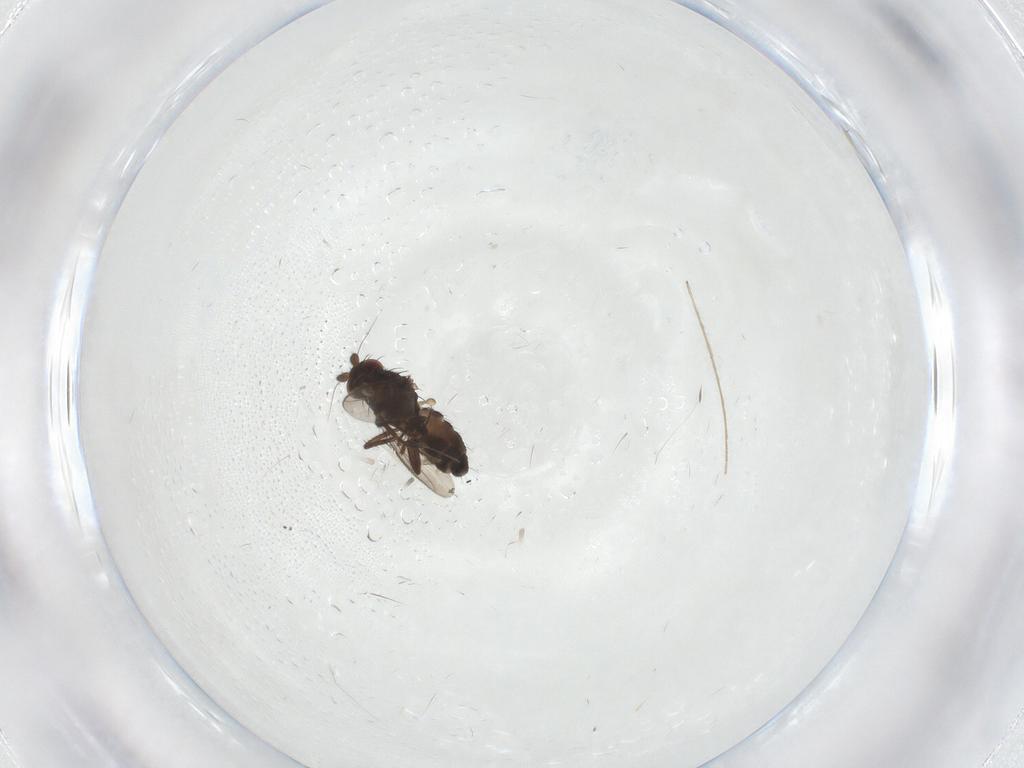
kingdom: Animalia
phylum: Arthropoda
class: Insecta
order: Diptera
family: Sphaeroceridae
